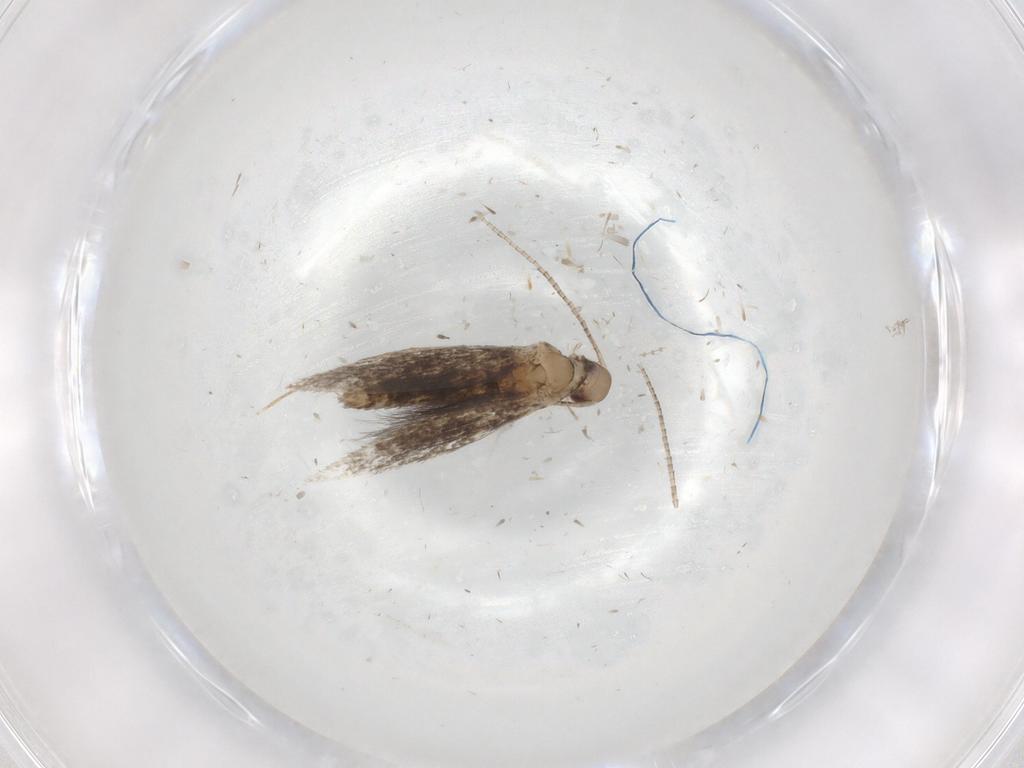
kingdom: Animalia
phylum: Arthropoda
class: Insecta
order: Lepidoptera
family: Gracillariidae
